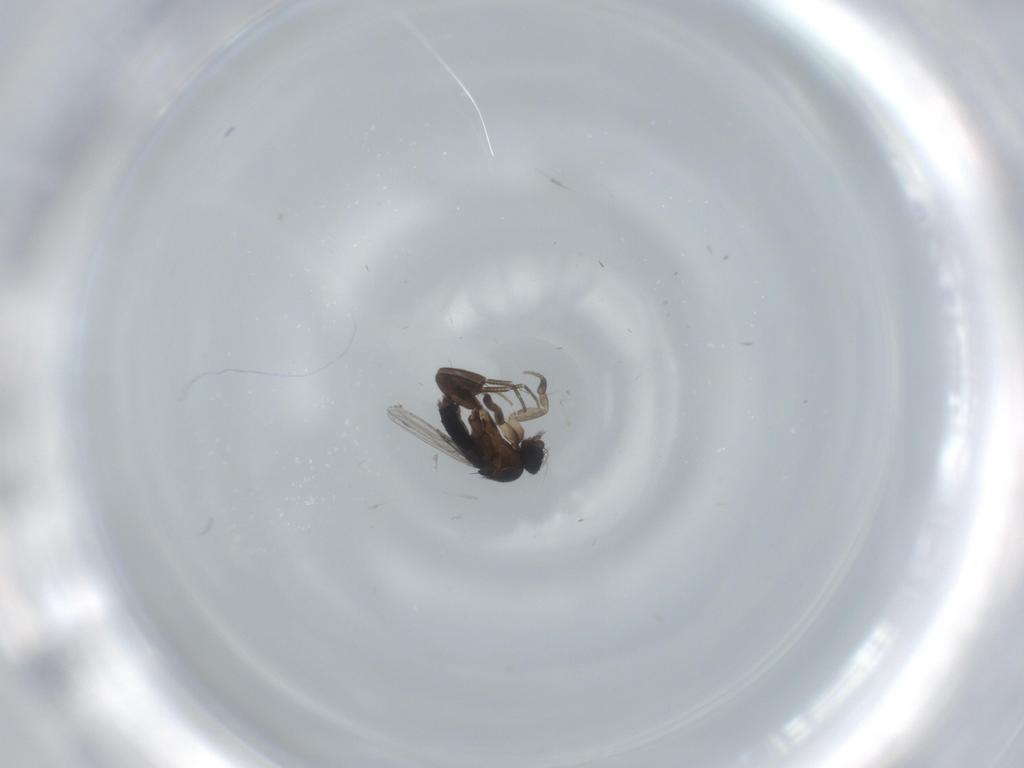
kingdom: Animalia
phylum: Arthropoda
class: Insecta
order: Diptera
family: Phoridae
